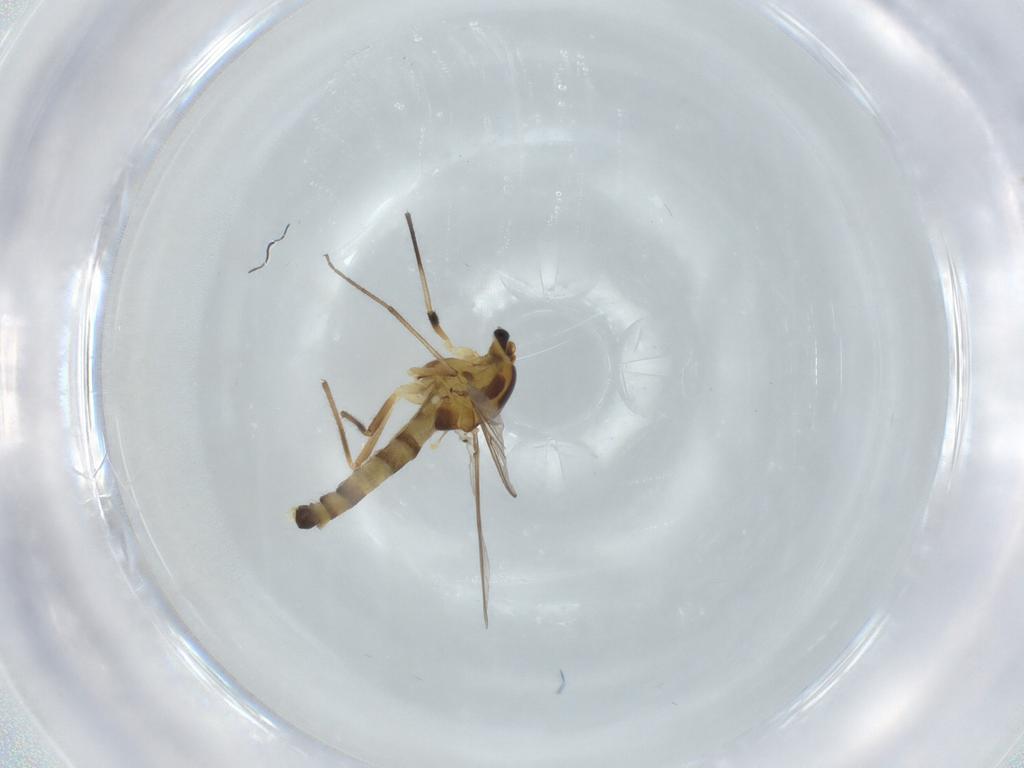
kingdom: Animalia
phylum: Arthropoda
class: Insecta
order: Diptera
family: Chironomidae
